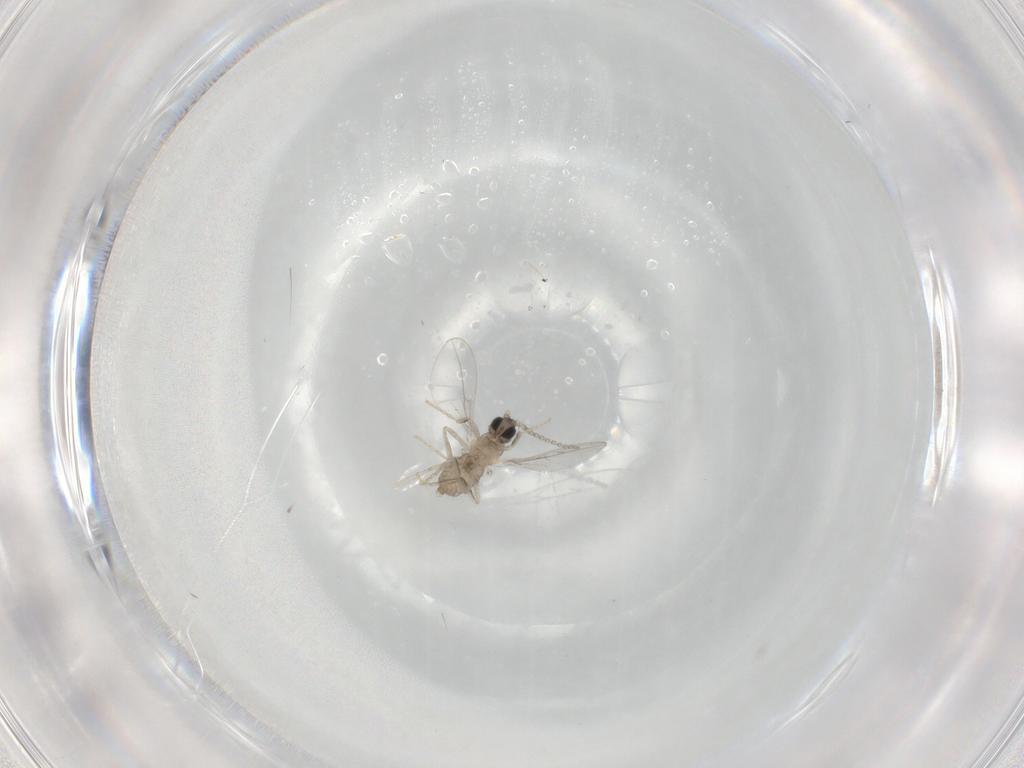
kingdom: Animalia
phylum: Arthropoda
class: Insecta
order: Diptera
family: Cecidomyiidae
